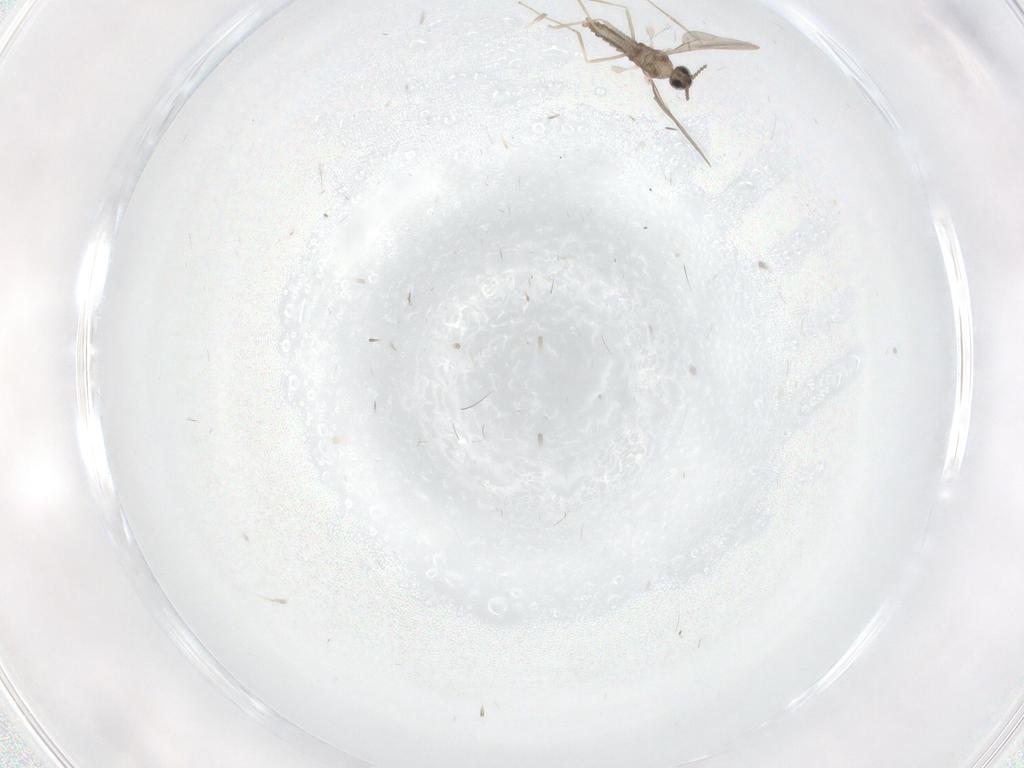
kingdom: Animalia
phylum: Arthropoda
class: Insecta
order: Diptera
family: Cecidomyiidae
